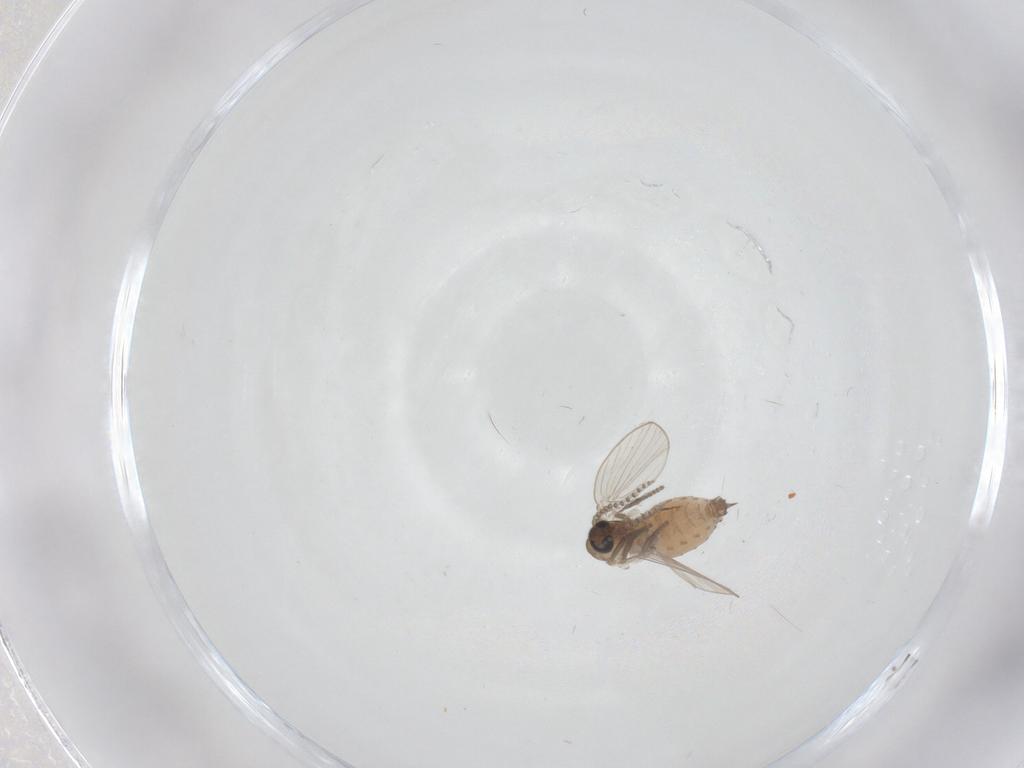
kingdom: Animalia
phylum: Arthropoda
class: Insecta
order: Diptera
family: Psychodidae
